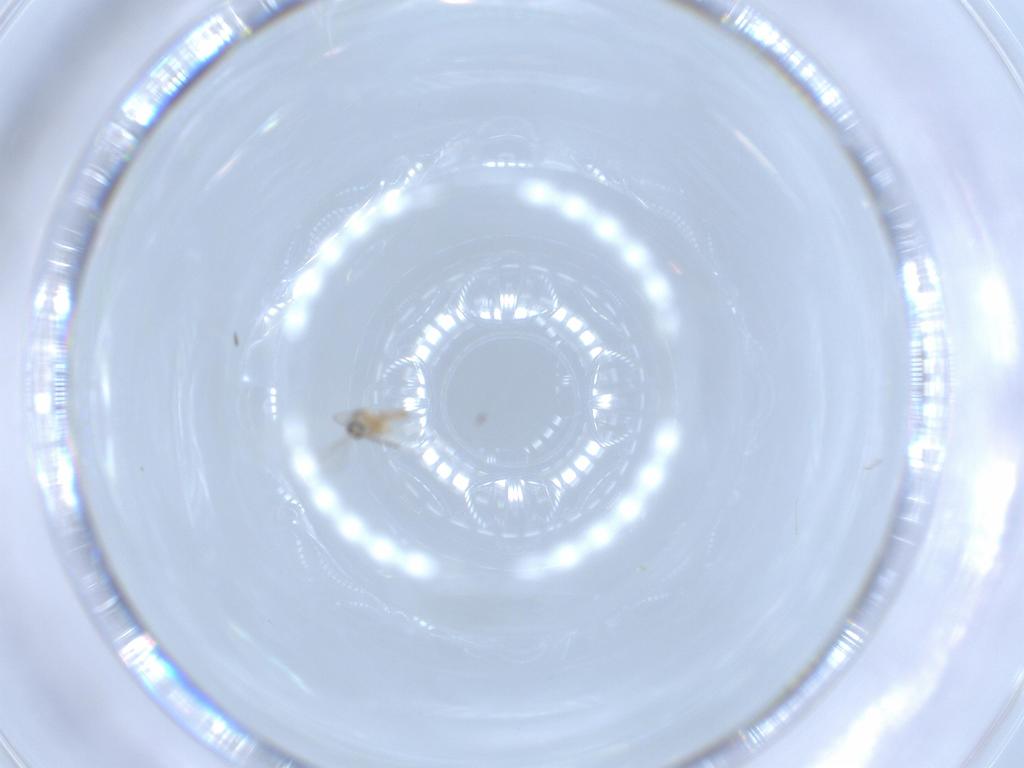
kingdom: Animalia
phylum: Arthropoda
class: Insecta
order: Diptera
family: Cecidomyiidae
